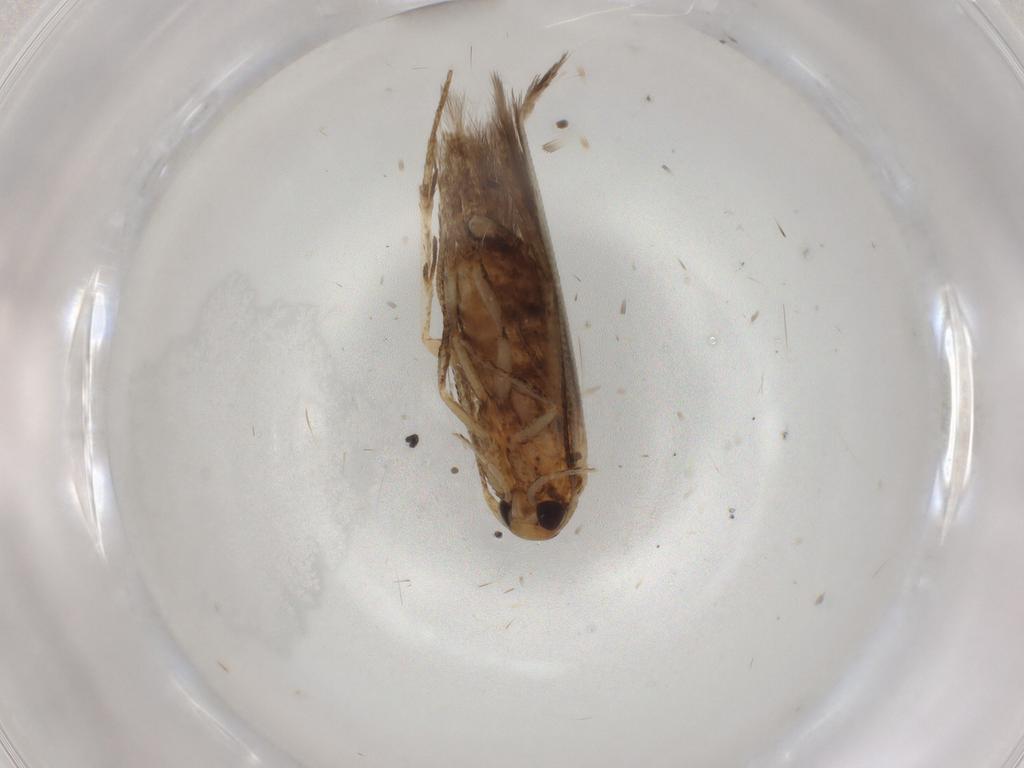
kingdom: Animalia
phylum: Arthropoda
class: Insecta
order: Lepidoptera
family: Cosmopterigidae
